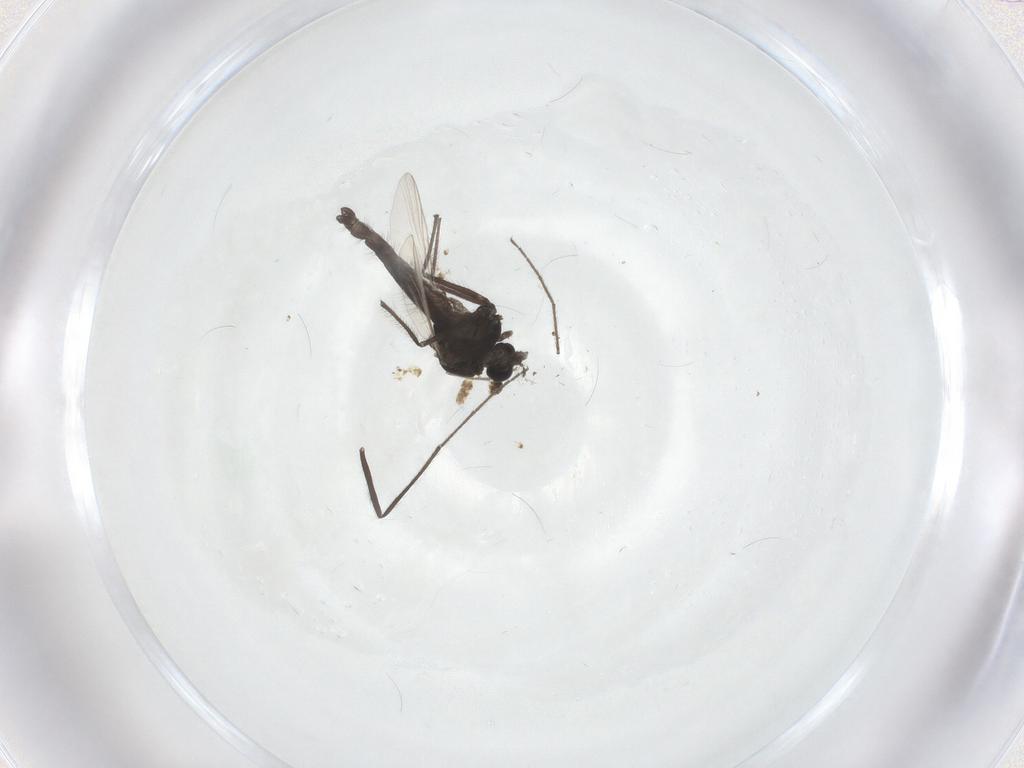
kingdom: Animalia
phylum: Arthropoda
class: Insecta
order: Diptera
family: Chironomidae
